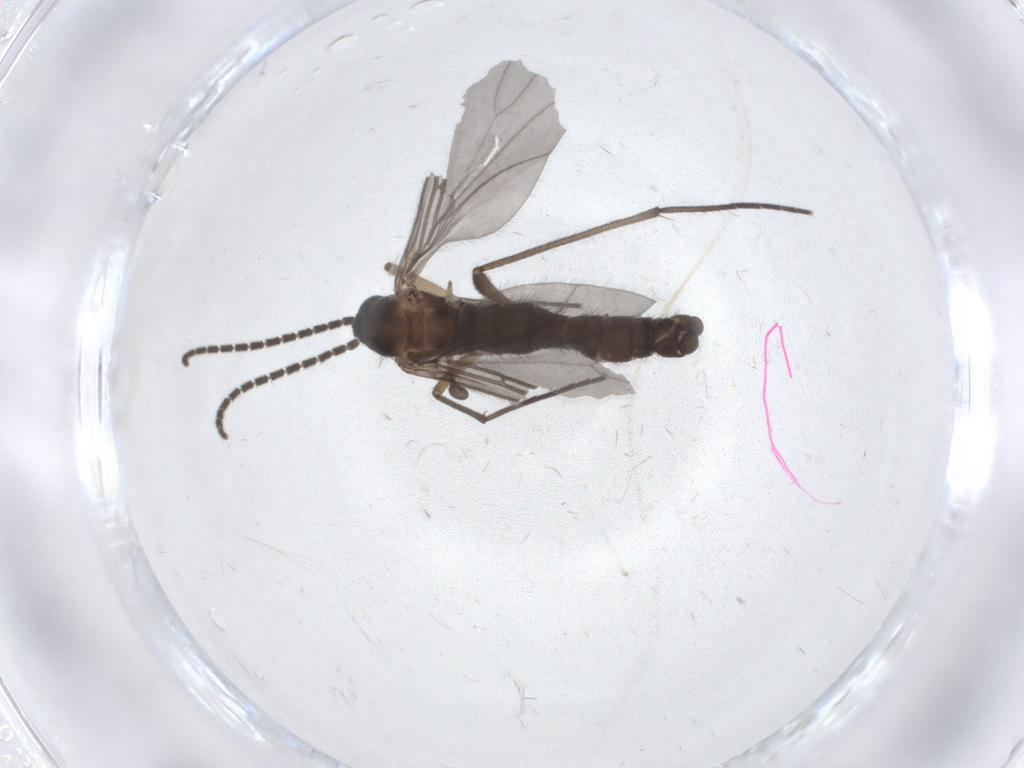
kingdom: Animalia
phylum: Arthropoda
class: Insecta
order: Diptera
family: Sciaridae
